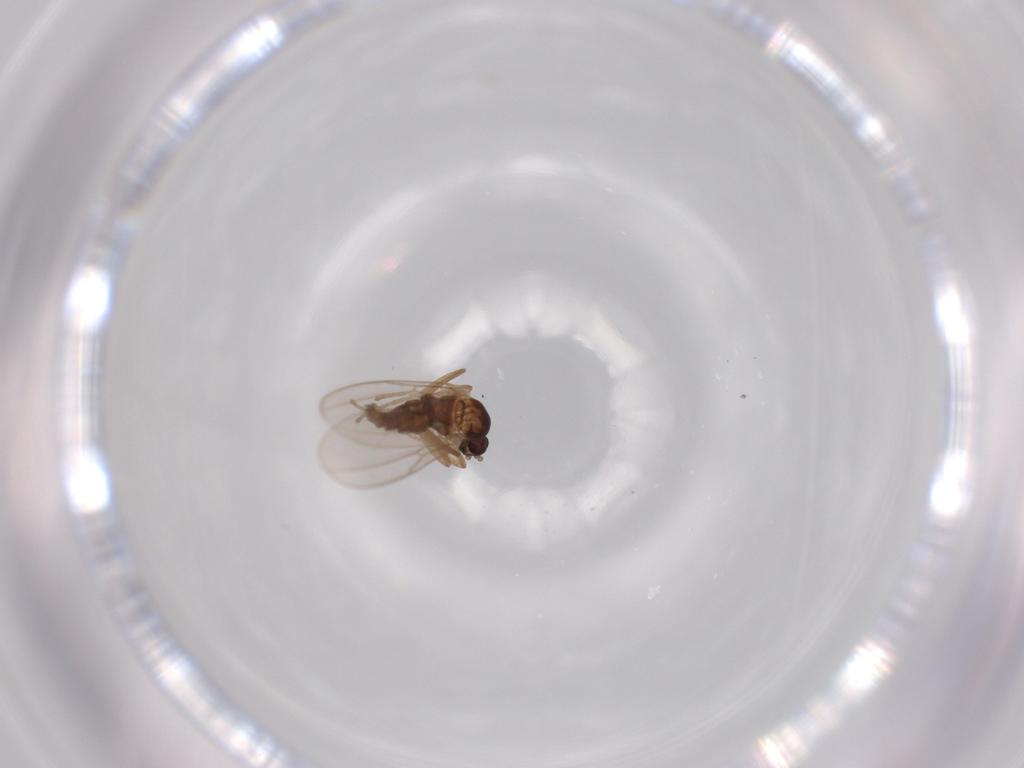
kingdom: Animalia
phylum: Arthropoda
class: Insecta
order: Diptera
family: Cecidomyiidae
